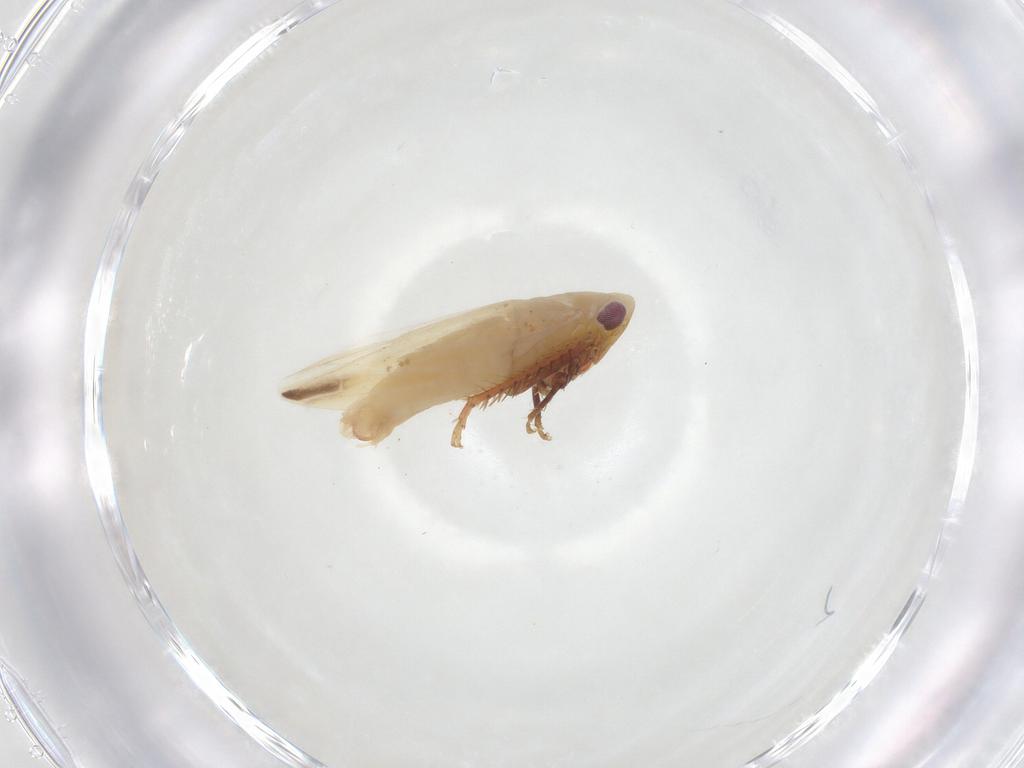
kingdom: Animalia
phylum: Arthropoda
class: Insecta
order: Hemiptera
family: Cicadellidae
